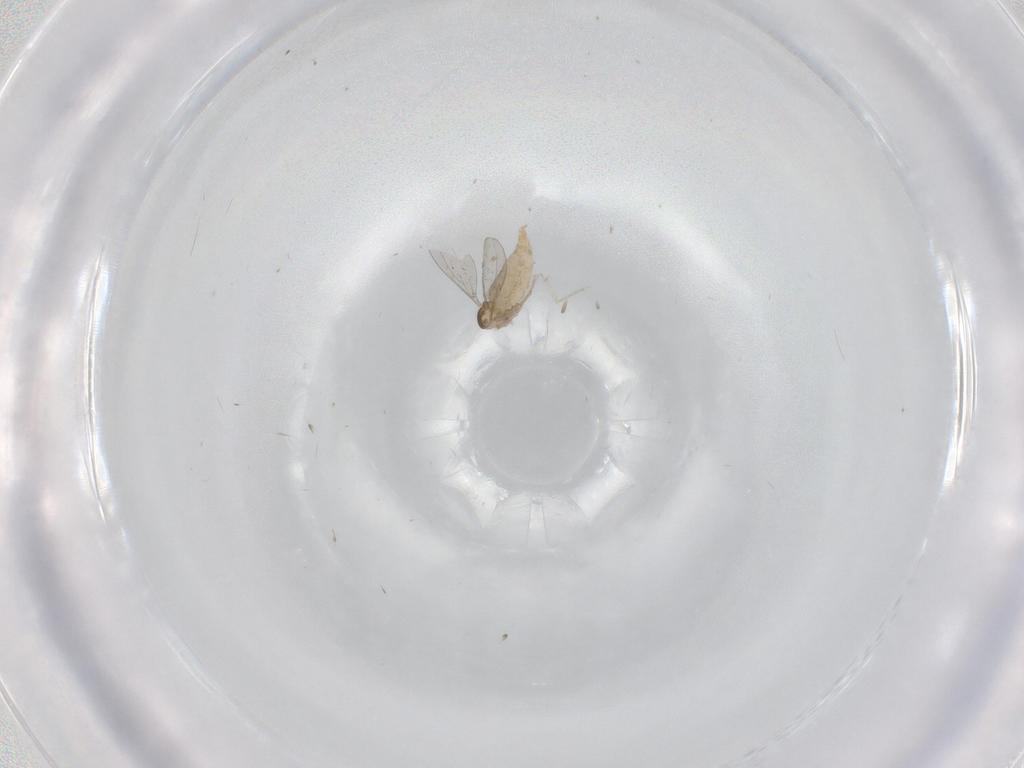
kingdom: Animalia
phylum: Arthropoda
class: Insecta
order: Diptera
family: Cecidomyiidae
